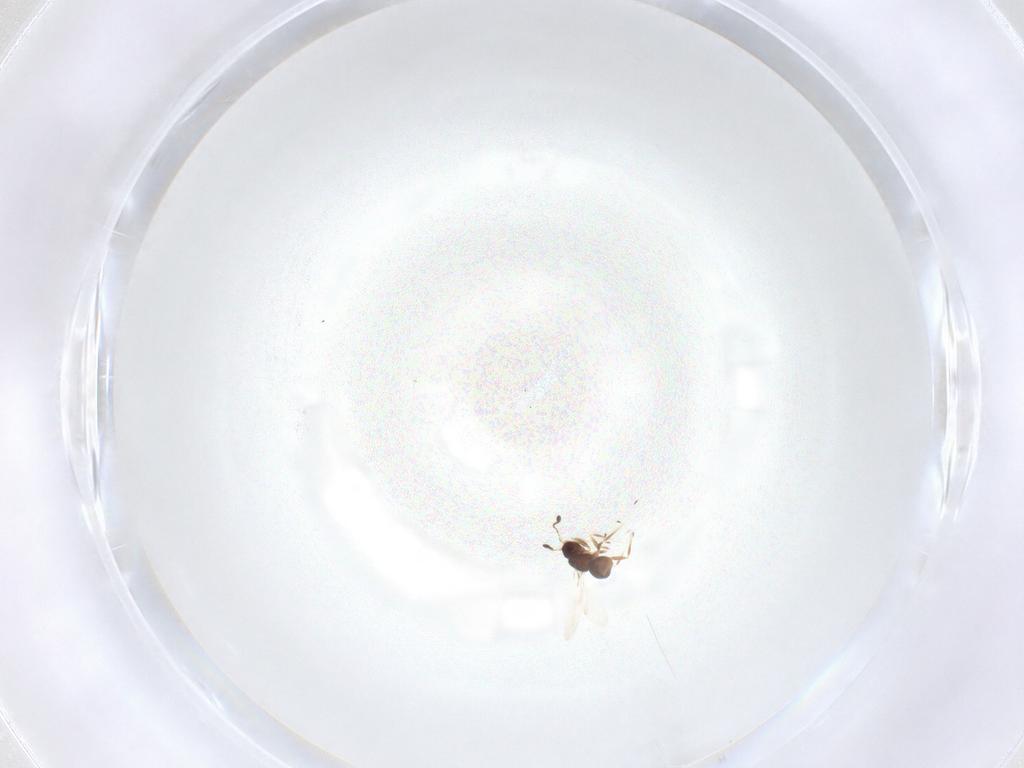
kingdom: Animalia
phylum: Arthropoda
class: Insecta
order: Hymenoptera
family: Mymaridae
